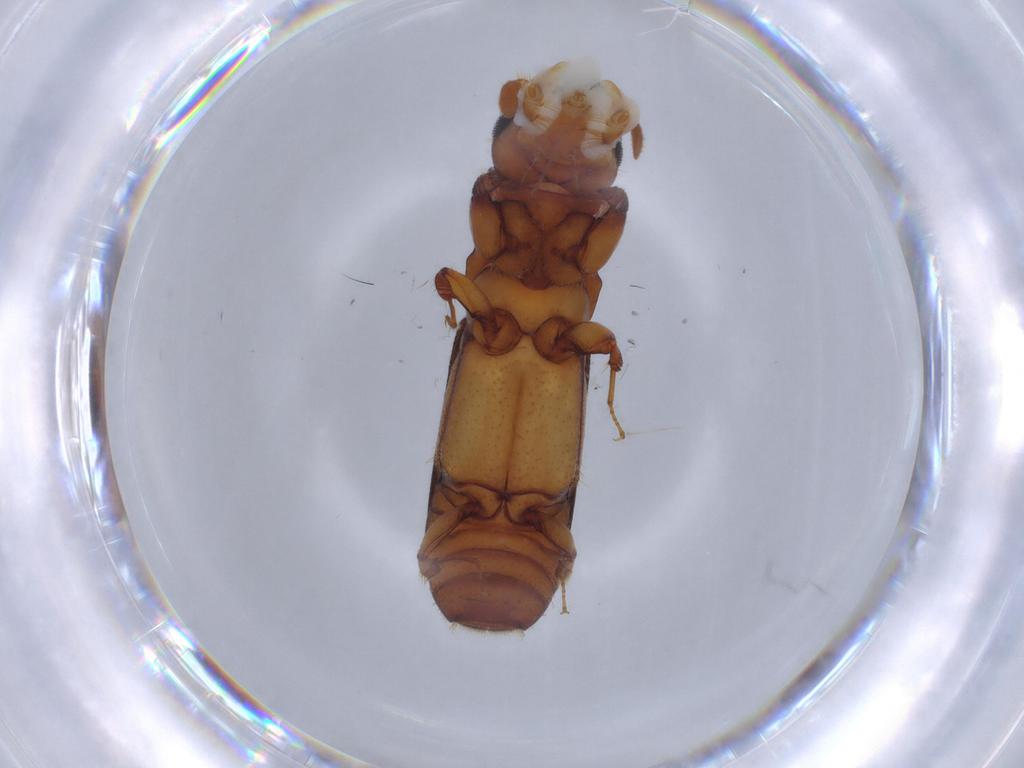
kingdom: Animalia
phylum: Arthropoda
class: Insecta
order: Coleoptera
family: Curculionidae
